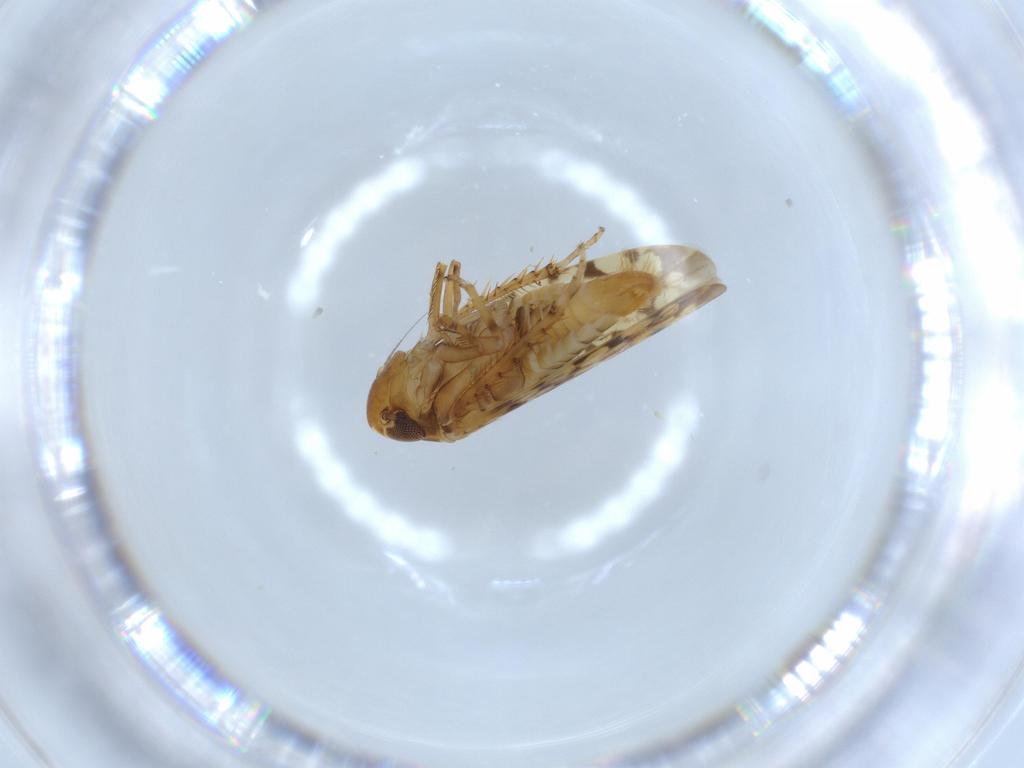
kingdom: Animalia
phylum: Arthropoda
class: Insecta
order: Hemiptera
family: Cicadellidae
